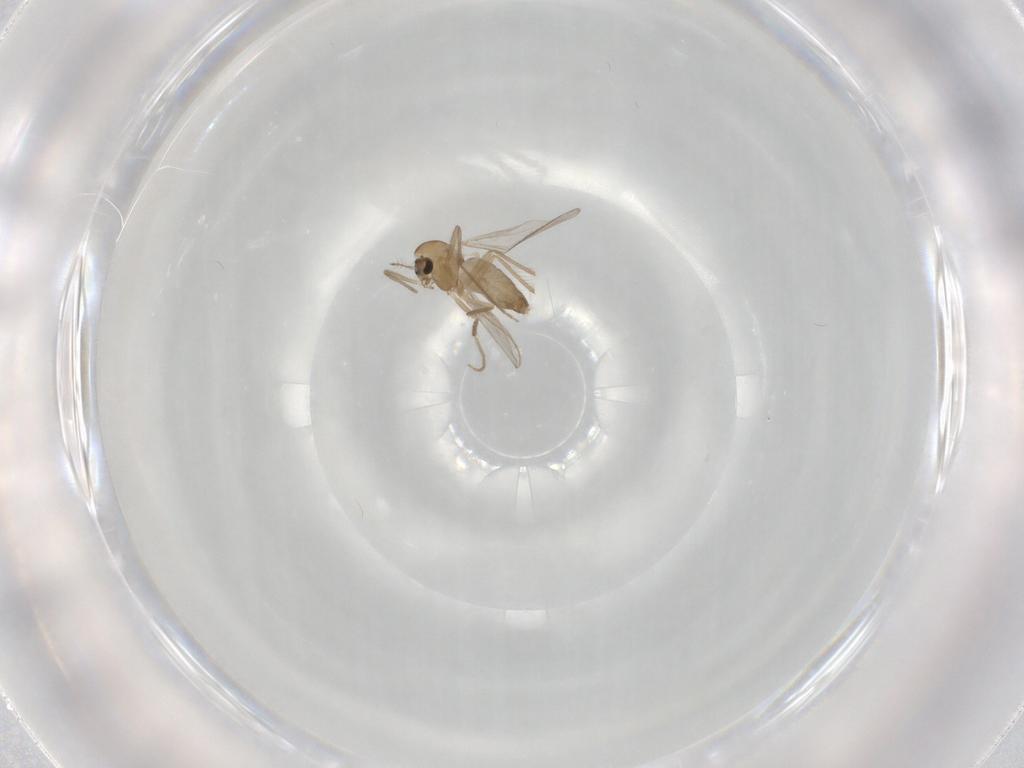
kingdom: Animalia
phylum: Arthropoda
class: Insecta
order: Diptera
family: Chironomidae
